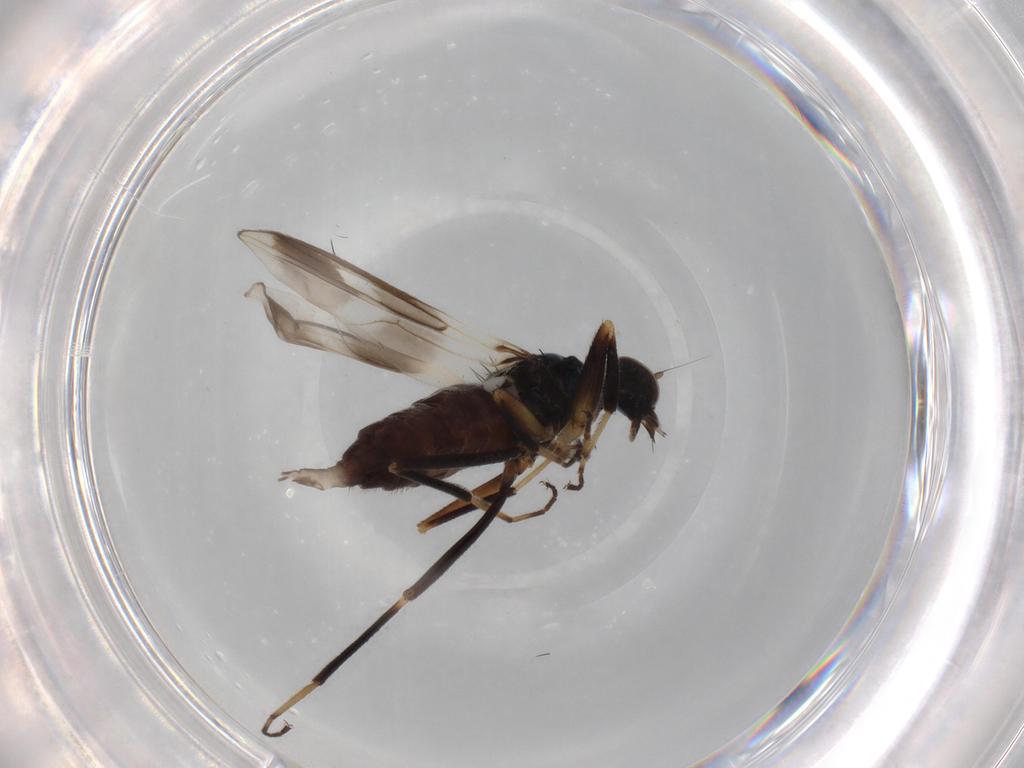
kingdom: Animalia
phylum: Arthropoda
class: Insecta
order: Diptera
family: Hybotidae
